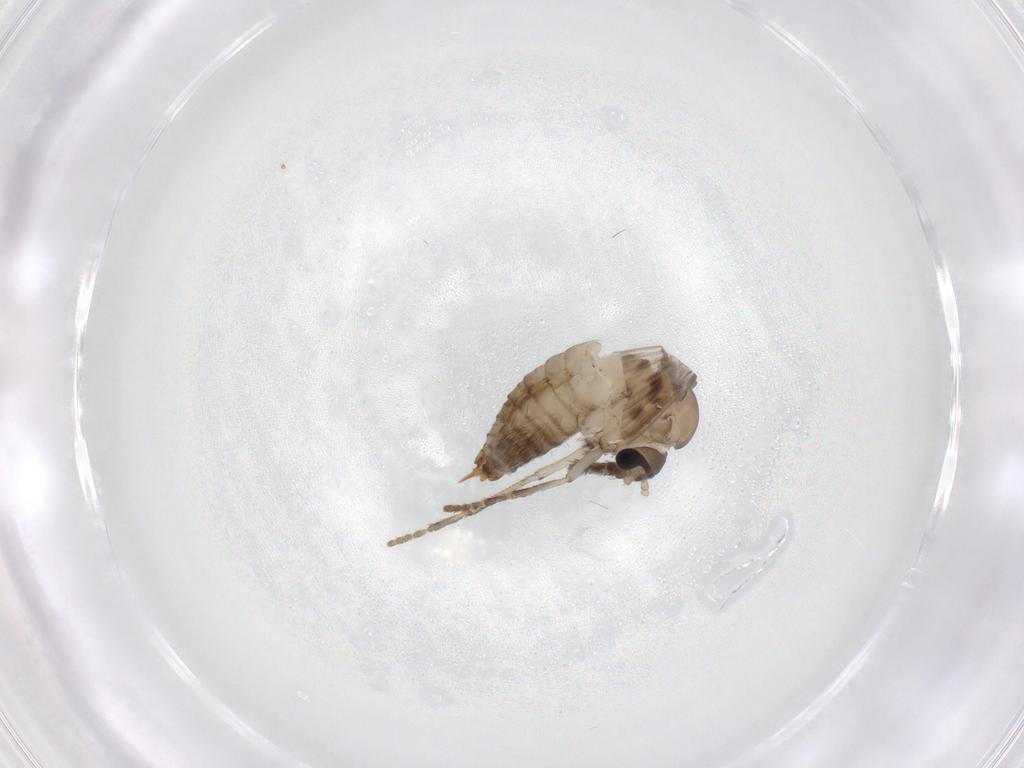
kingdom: Animalia
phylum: Arthropoda
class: Insecta
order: Diptera
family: Psychodidae
